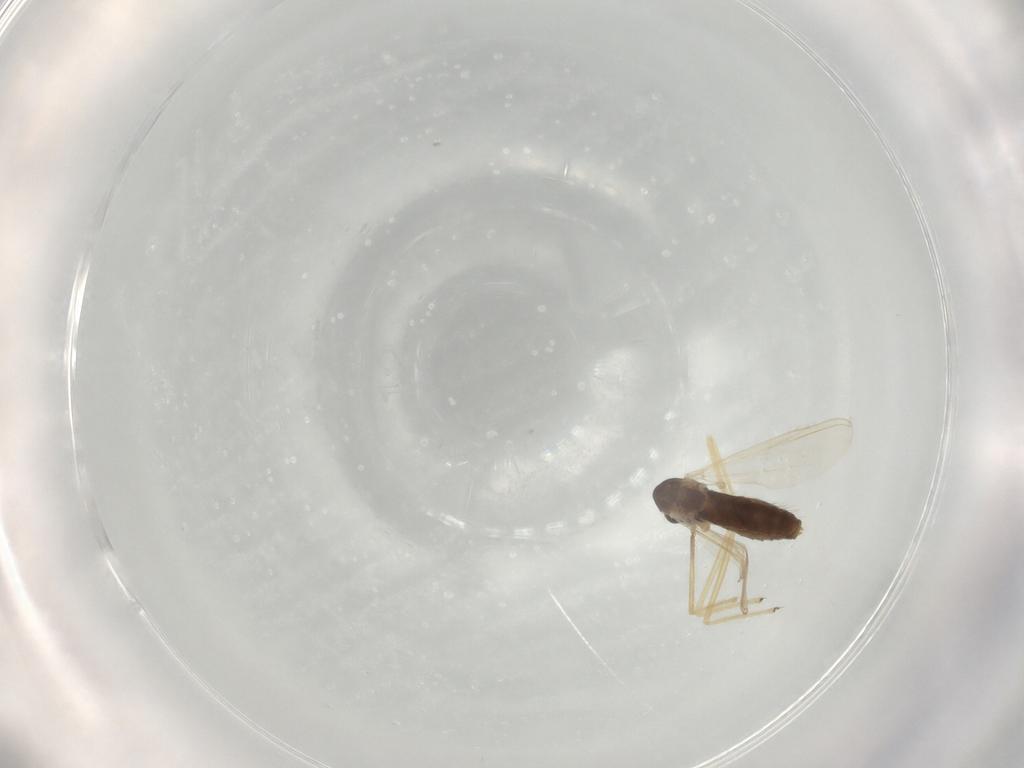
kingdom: Animalia
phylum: Arthropoda
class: Insecta
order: Diptera
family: Chironomidae
